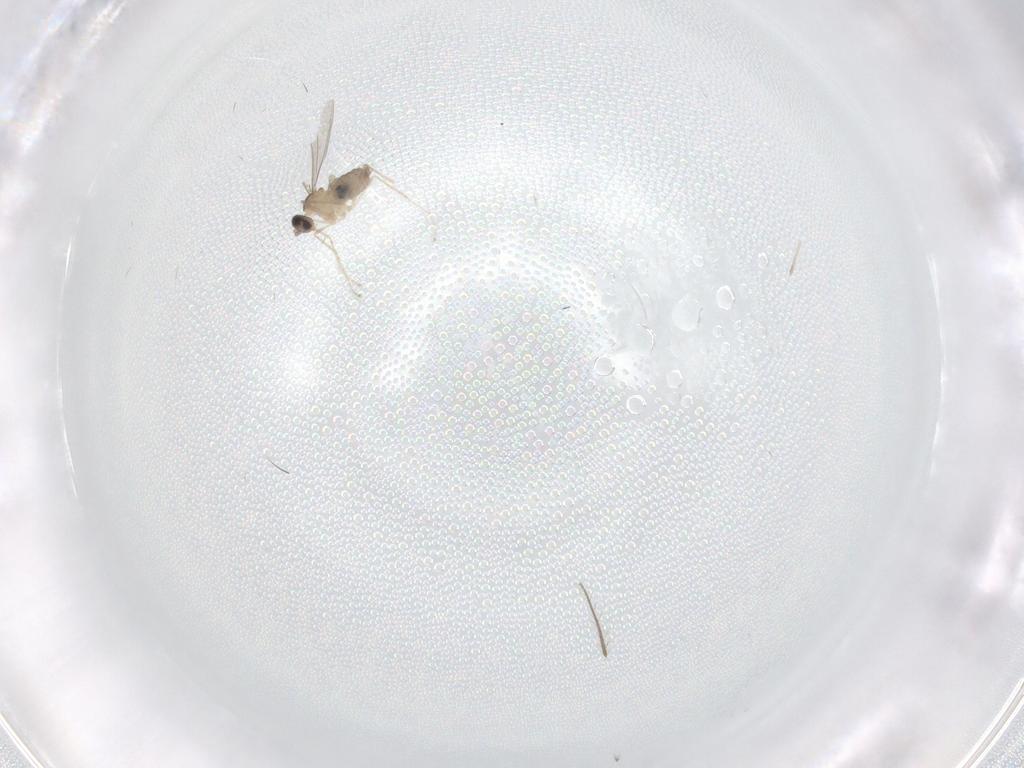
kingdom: Animalia
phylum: Arthropoda
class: Insecta
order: Diptera
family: Cecidomyiidae
